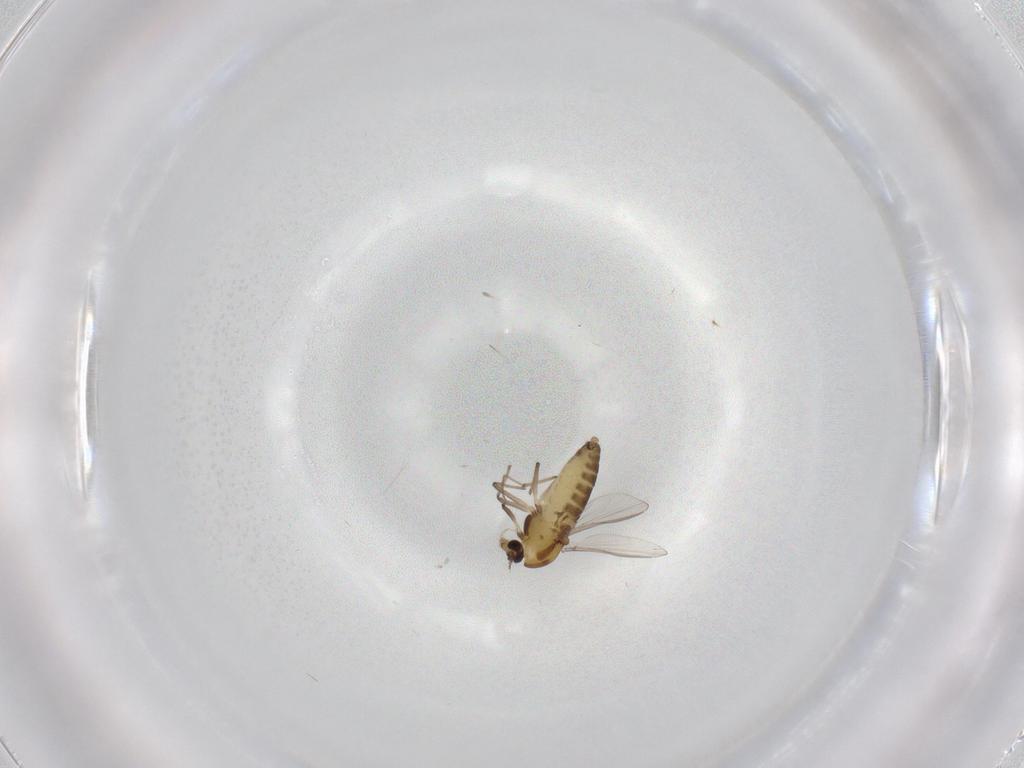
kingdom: Animalia
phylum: Arthropoda
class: Insecta
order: Diptera
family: Chironomidae
